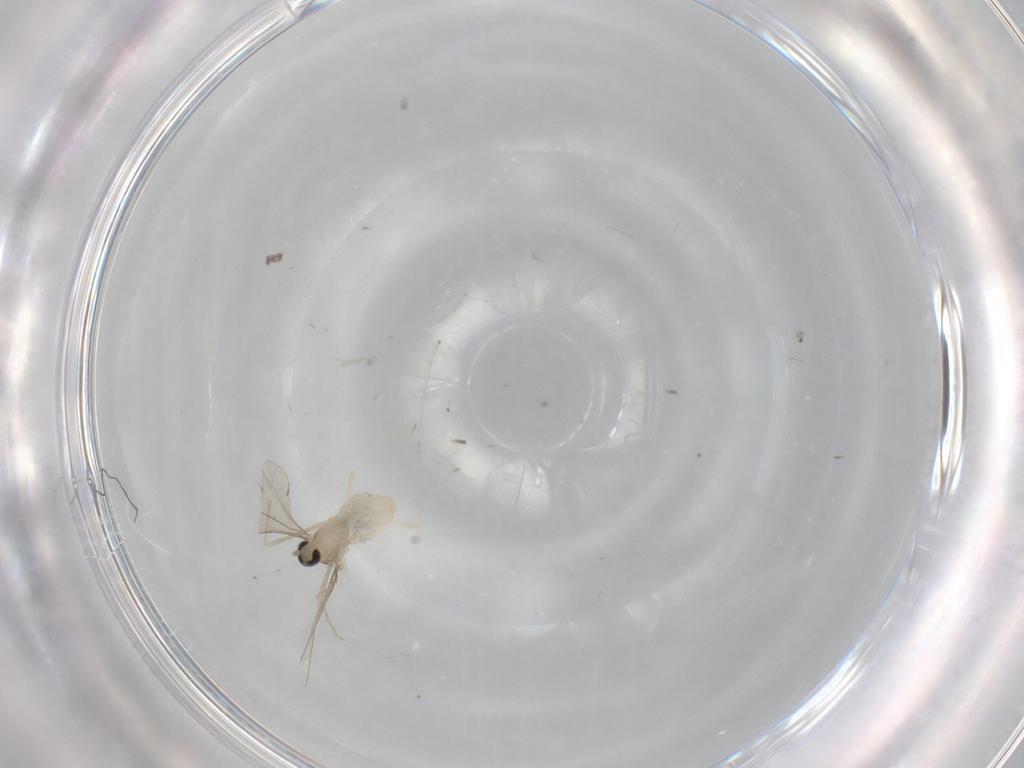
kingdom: Animalia
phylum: Arthropoda
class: Insecta
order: Diptera
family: Cecidomyiidae
